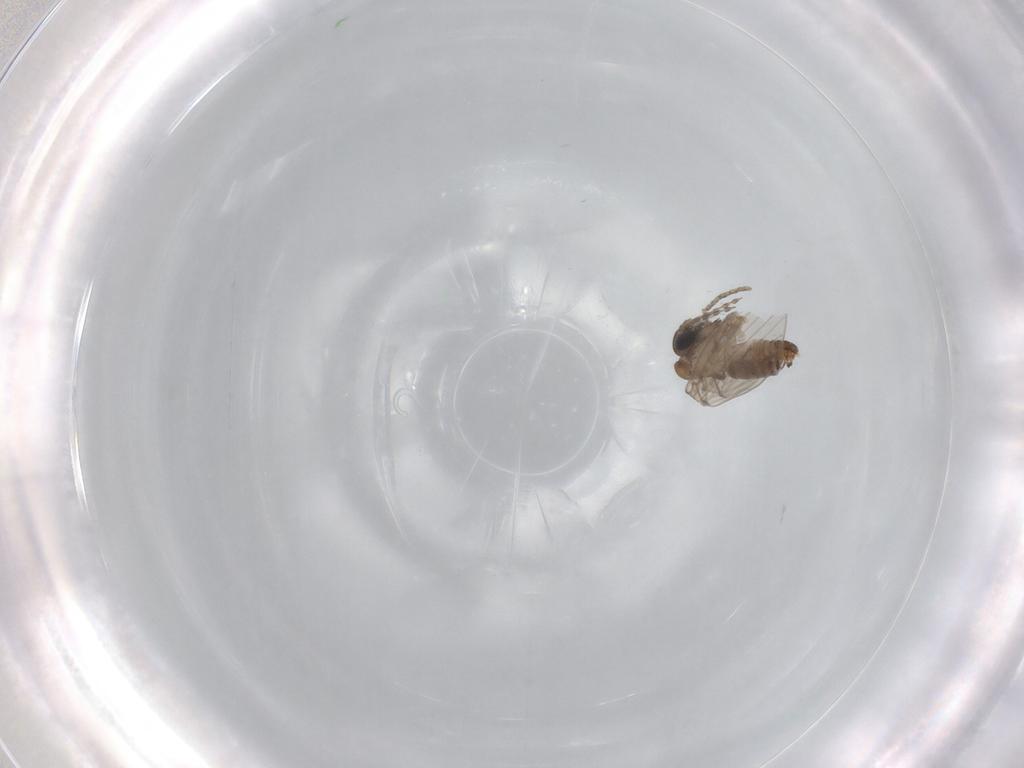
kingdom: Animalia
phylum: Arthropoda
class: Insecta
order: Diptera
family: Psychodidae
